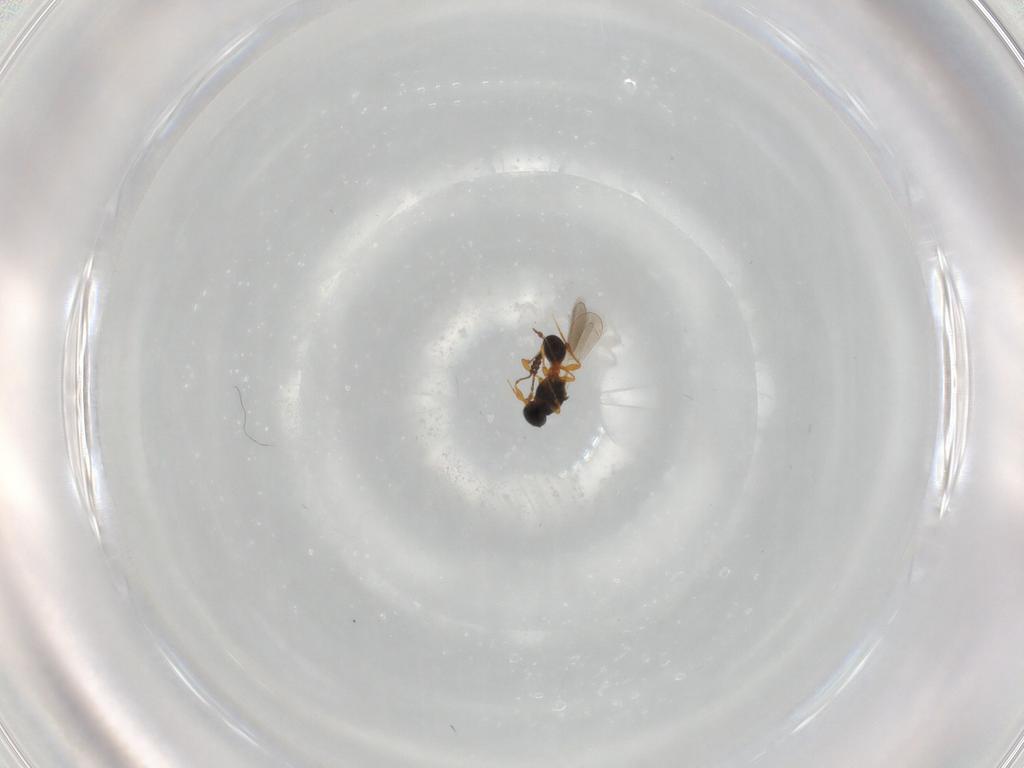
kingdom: Animalia
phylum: Arthropoda
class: Insecta
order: Hymenoptera
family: Platygastridae
